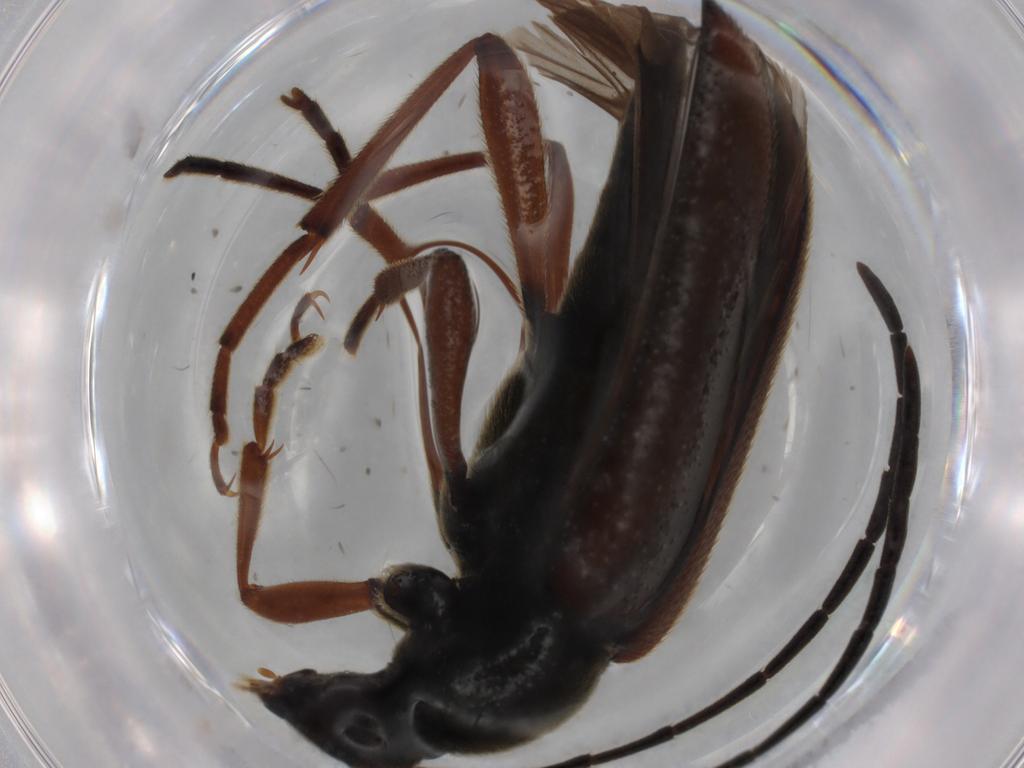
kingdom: Animalia
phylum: Arthropoda
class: Insecta
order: Coleoptera
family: Cerambycidae
